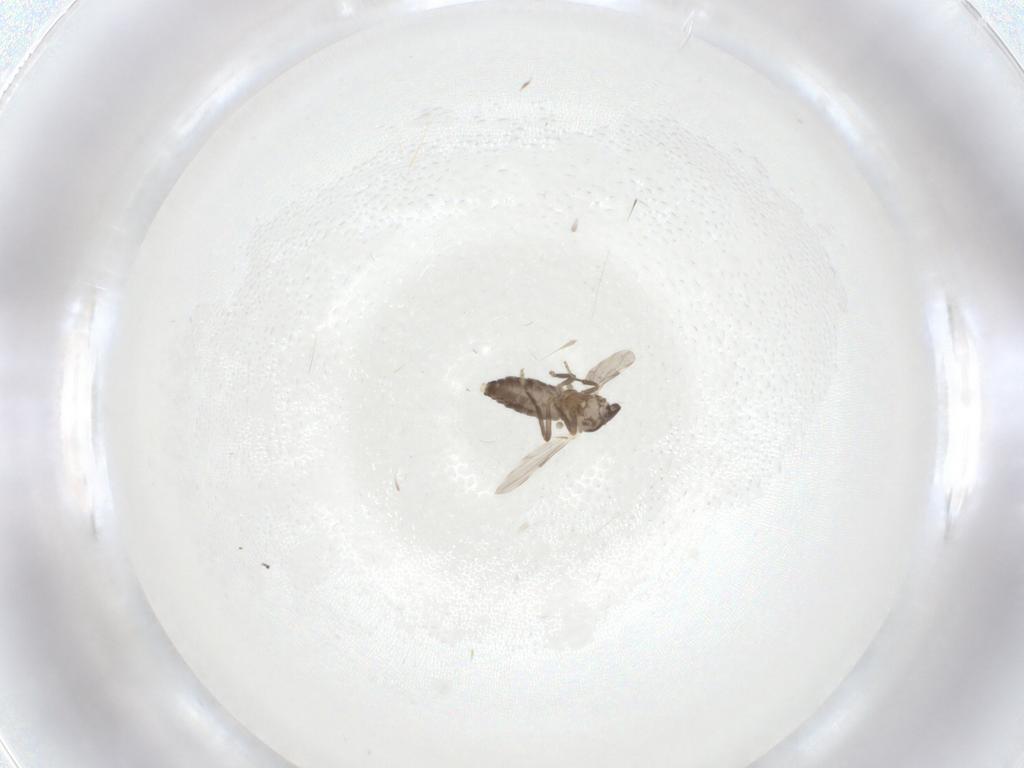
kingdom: Animalia
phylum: Arthropoda
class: Insecta
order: Diptera
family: Ceratopogonidae
